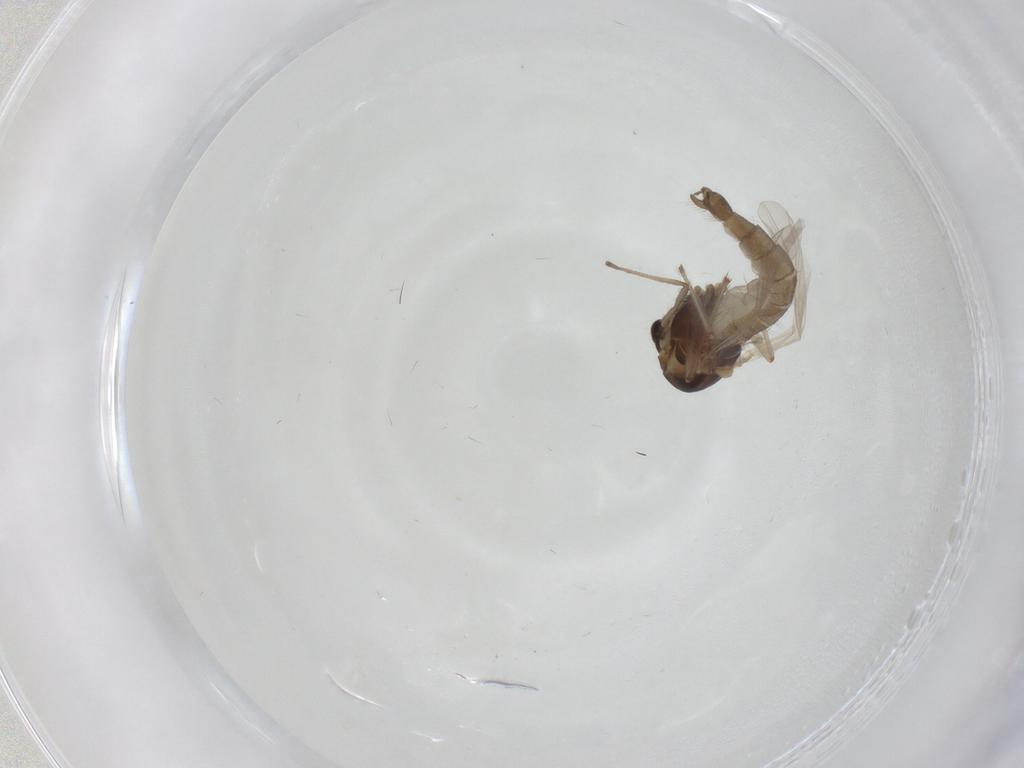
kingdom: Animalia
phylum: Arthropoda
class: Insecta
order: Diptera
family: Chironomidae
